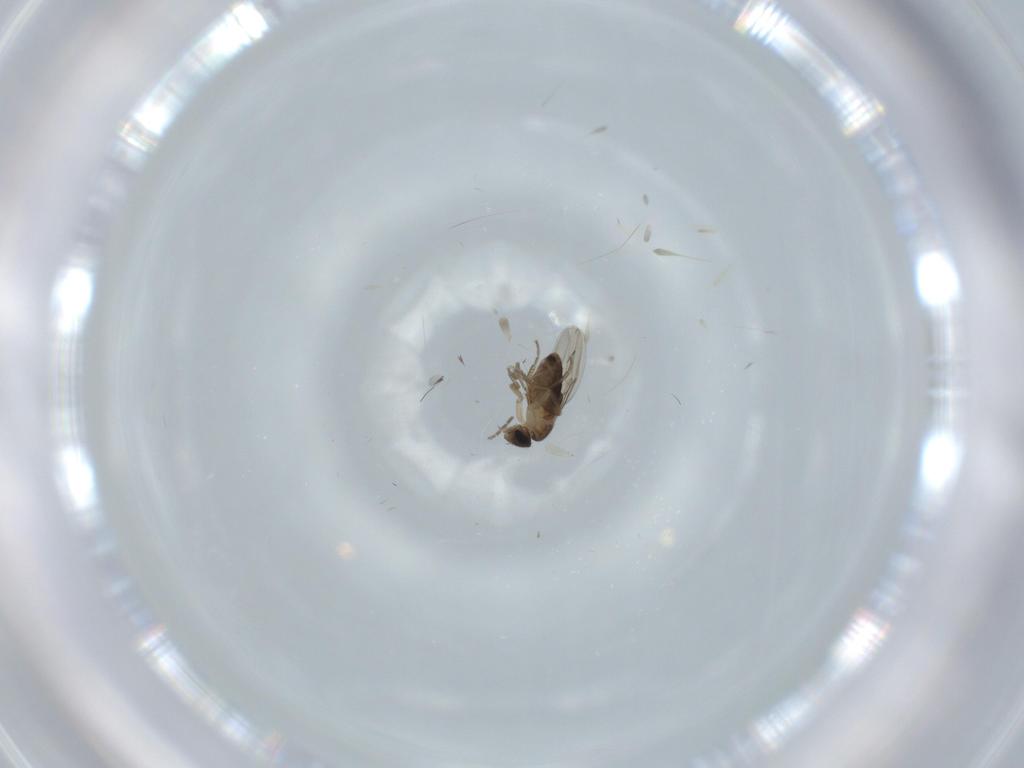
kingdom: Animalia
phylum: Arthropoda
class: Insecta
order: Diptera
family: Phoridae
